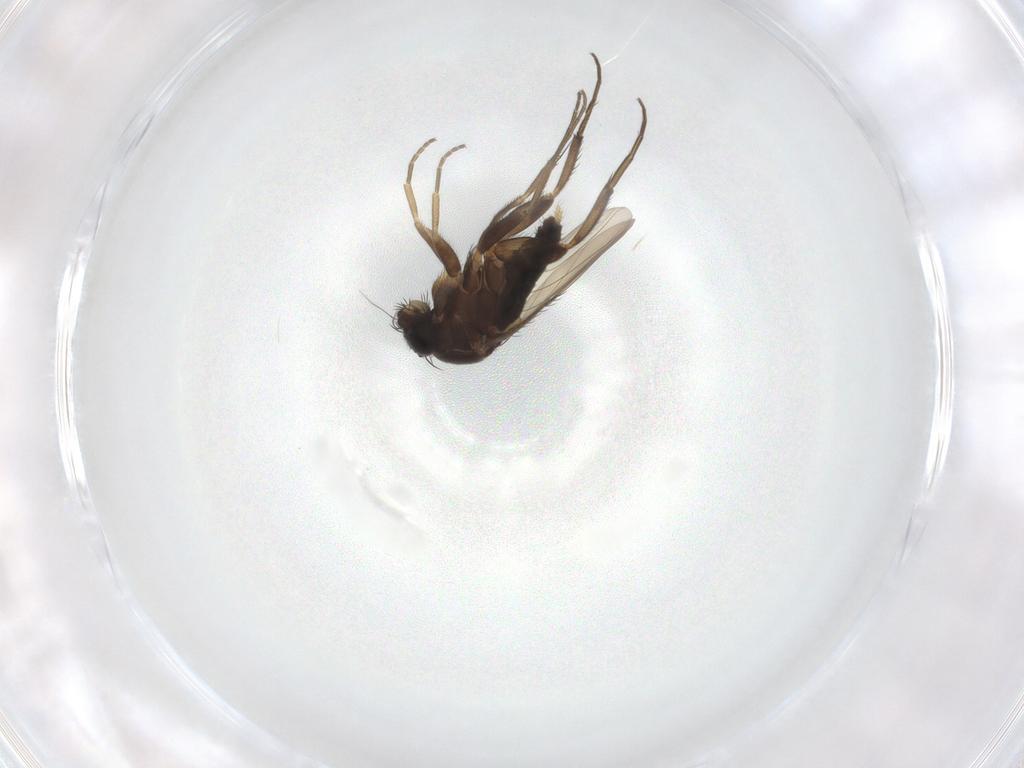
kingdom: Animalia
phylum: Arthropoda
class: Insecta
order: Diptera
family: Phoridae
